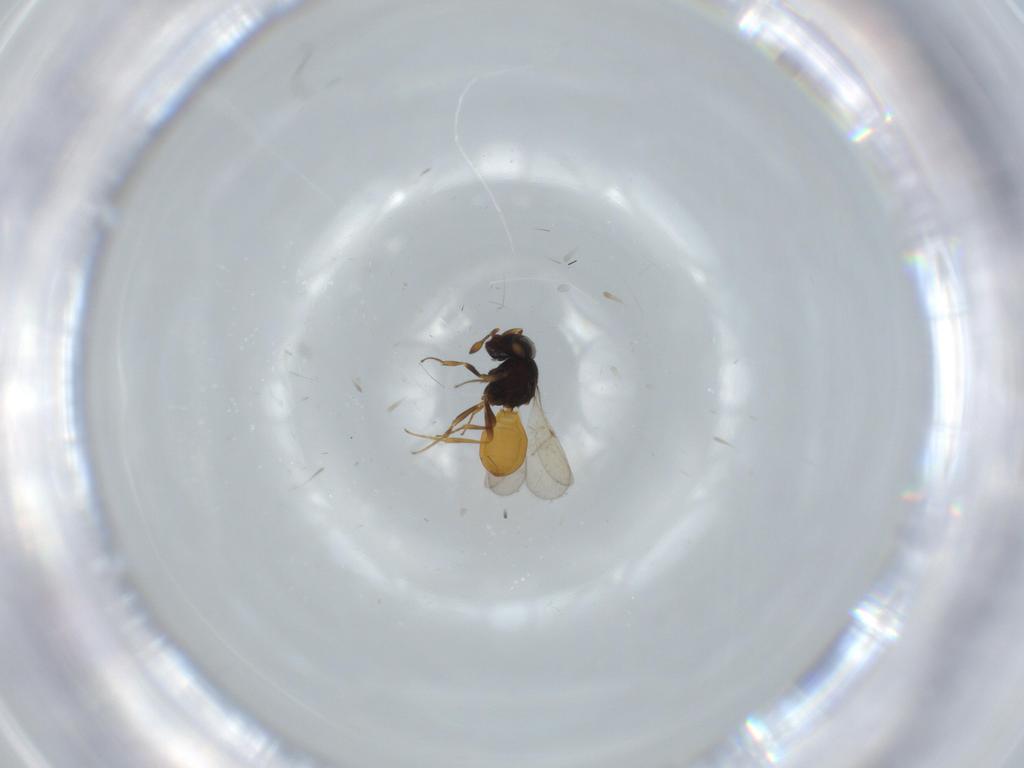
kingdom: Animalia
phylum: Arthropoda
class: Insecta
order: Hymenoptera
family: Scelionidae
